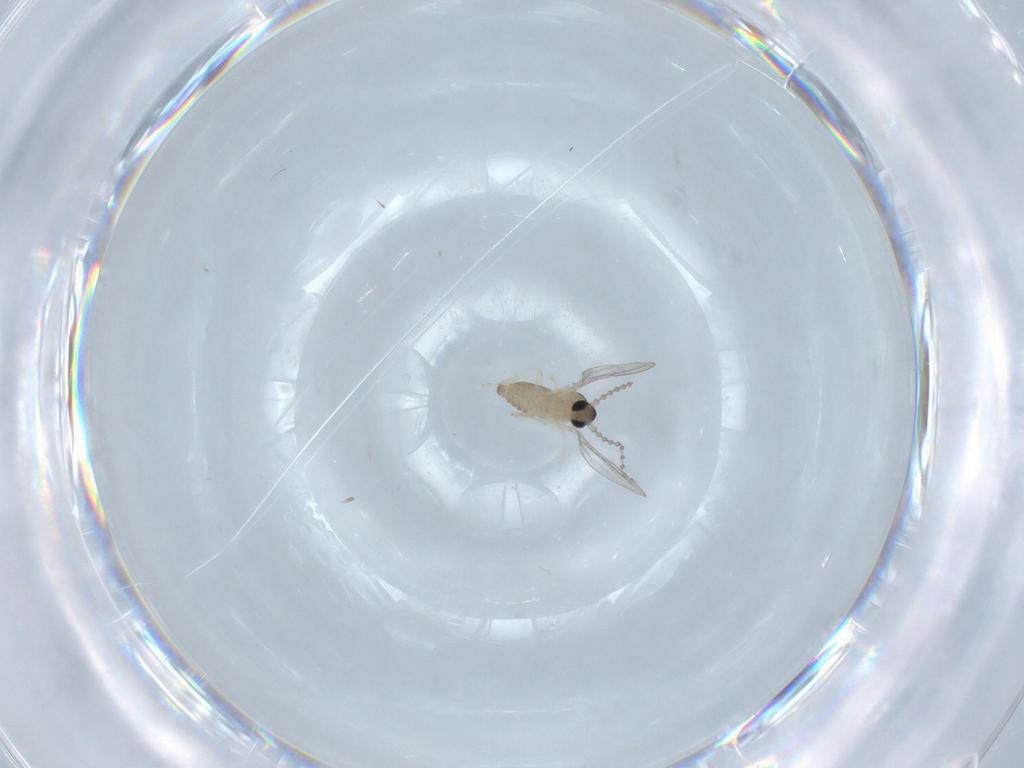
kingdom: Animalia
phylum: Arthropoda
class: Insecta
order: Diptera
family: Cecidomyiidae
